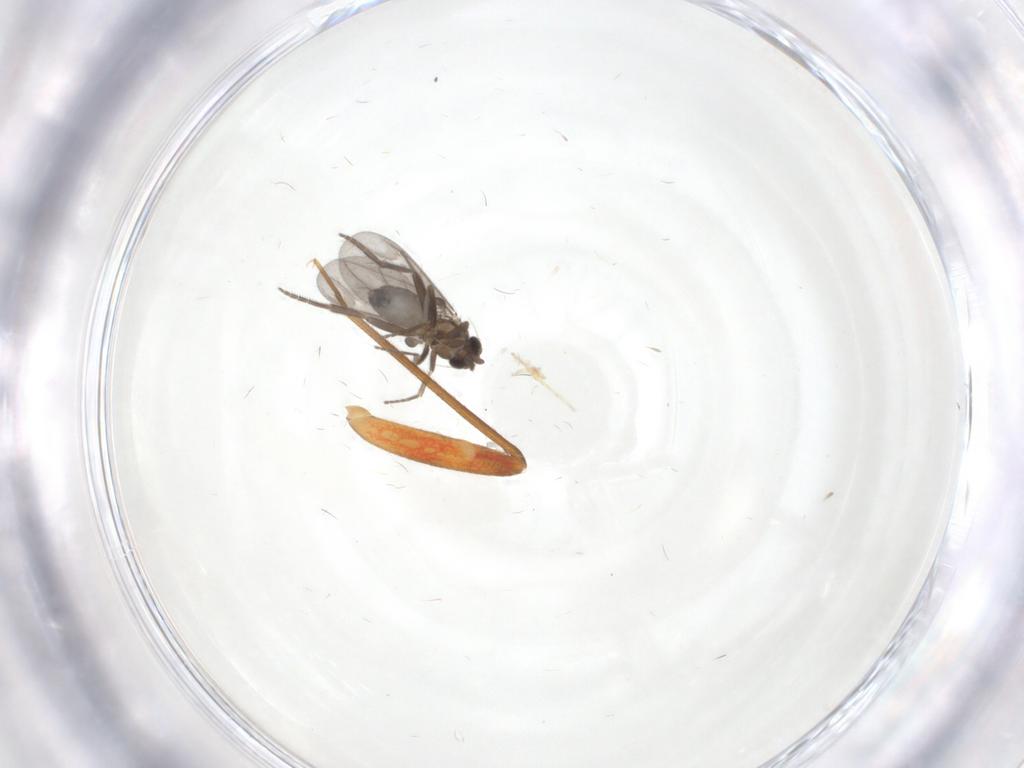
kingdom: Animalia
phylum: Arthropoda
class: Insecta
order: Diptera
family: Phoridae
